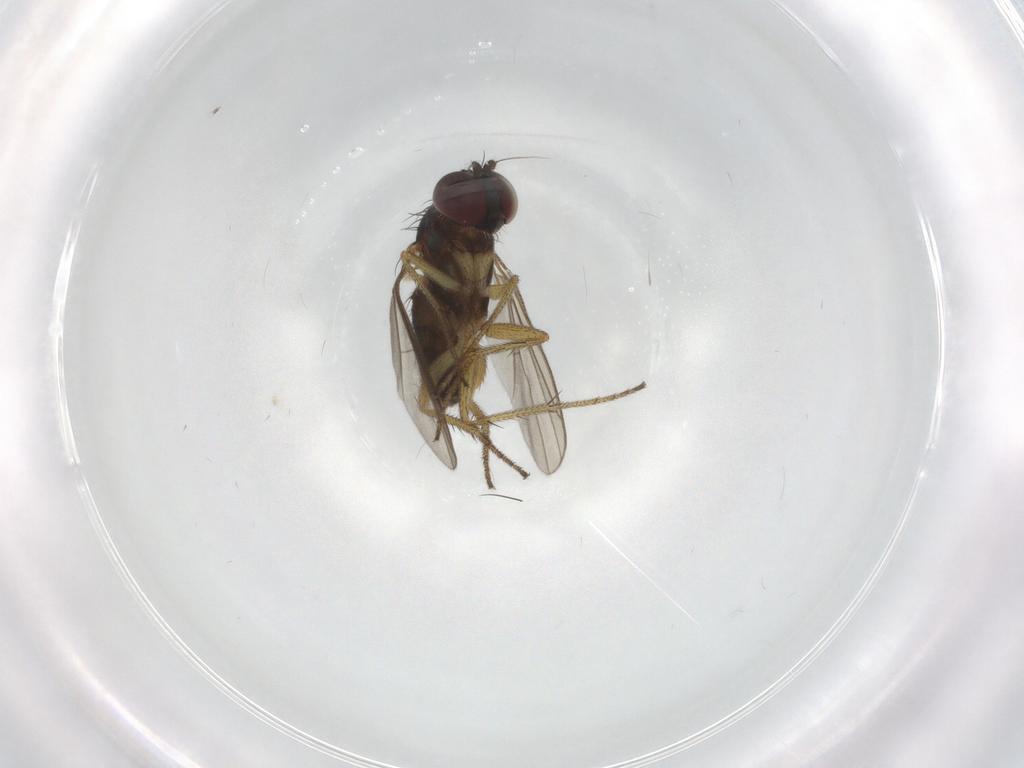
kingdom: Animalia
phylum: Arthropoda
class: Insecta
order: Diptera
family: Dolichopodidae
